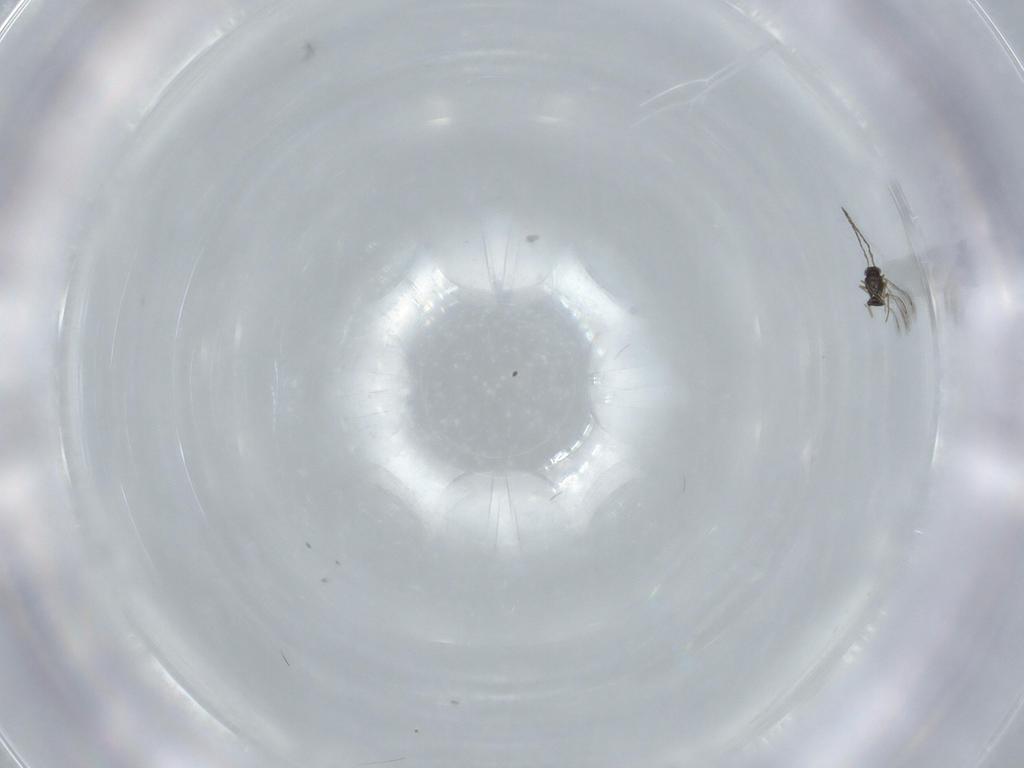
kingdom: Animalia
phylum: Arthropoda
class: Insecta
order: Hymenoptera
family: Mymaridae
